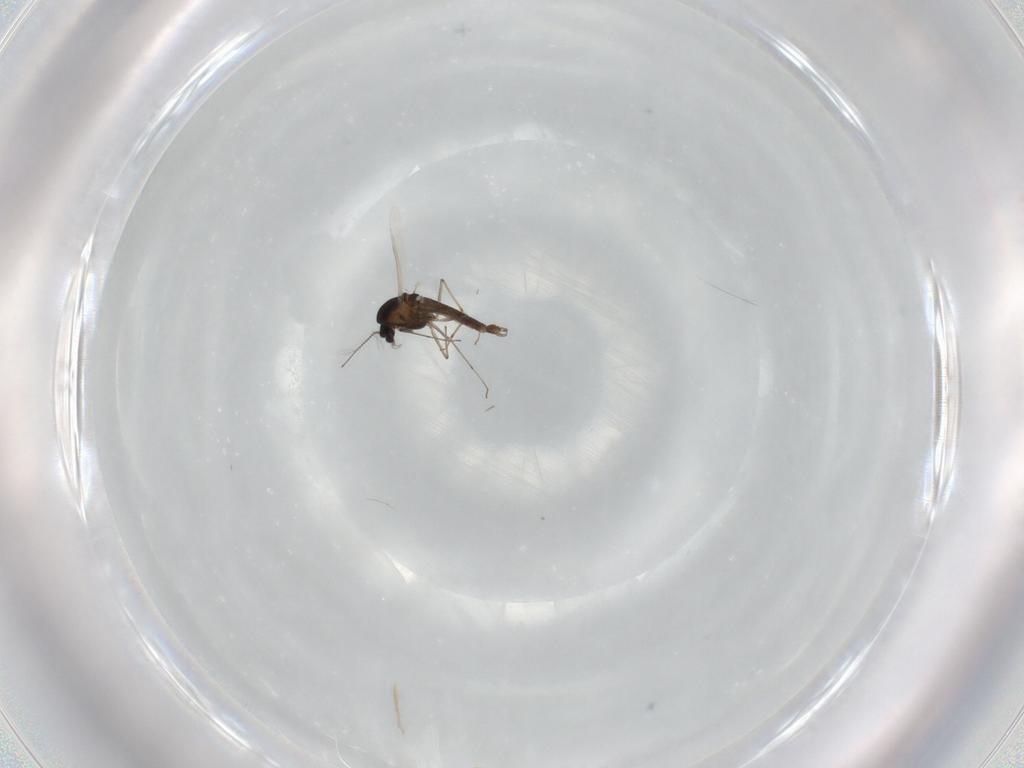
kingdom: Animalia
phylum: Arthropoda
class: Insecta
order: Diptera
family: Chironomidae
